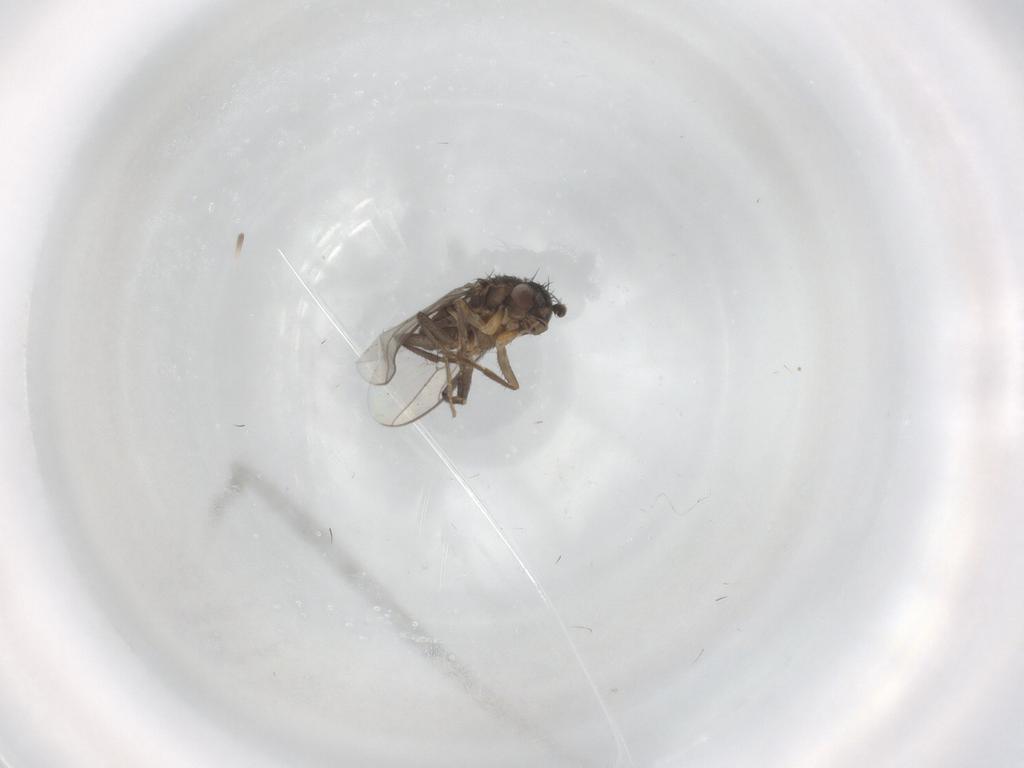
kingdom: Animalia
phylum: Arthropoda
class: Insecta
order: Diptera
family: Sphaeroceridae
